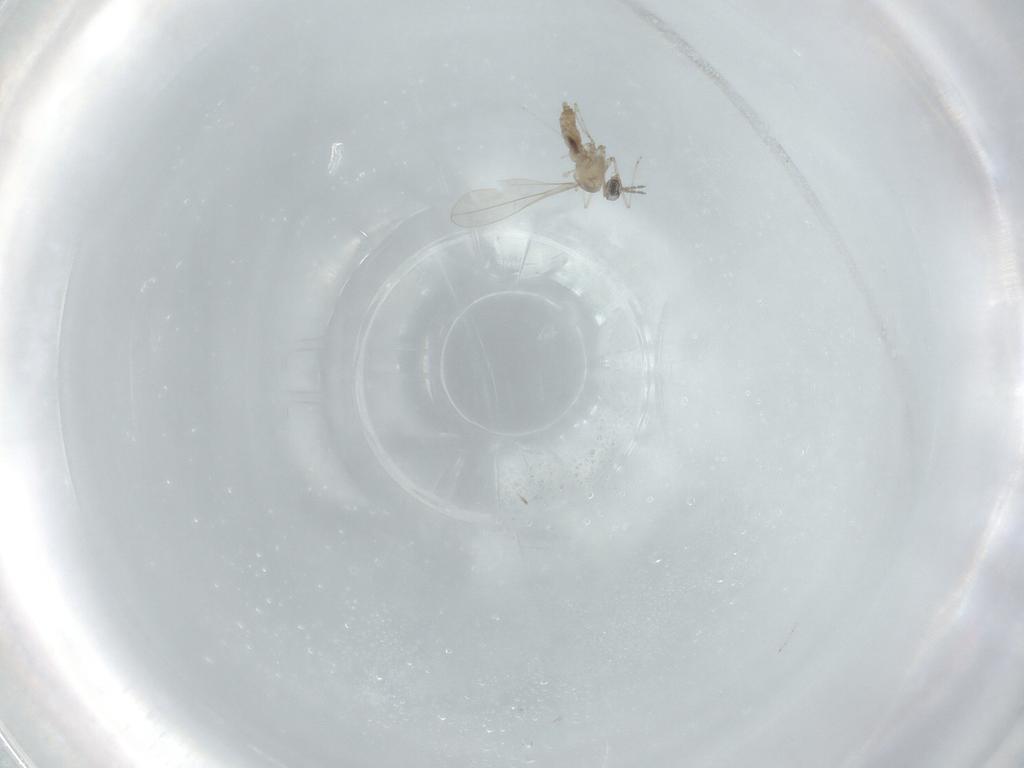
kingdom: Animalia
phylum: Arthropoda
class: Insecta
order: Diptera
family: Cecidomyiidae
